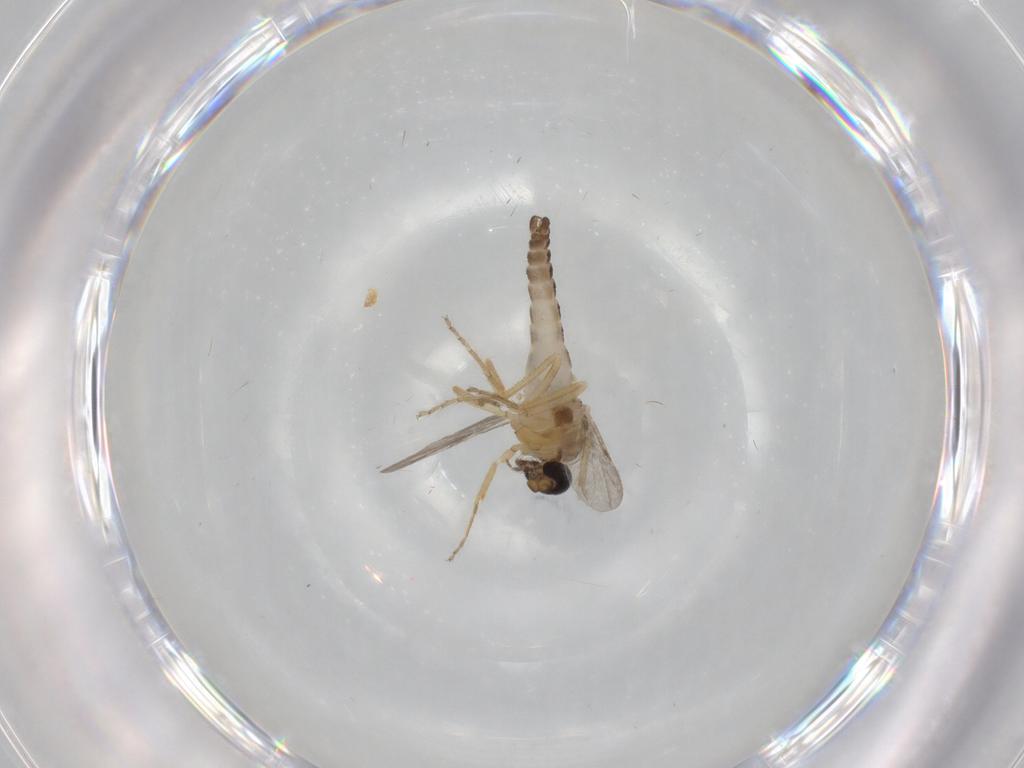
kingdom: Animalia
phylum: Arthropoda
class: Insecta
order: Diptera
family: Ceratopogonidae
